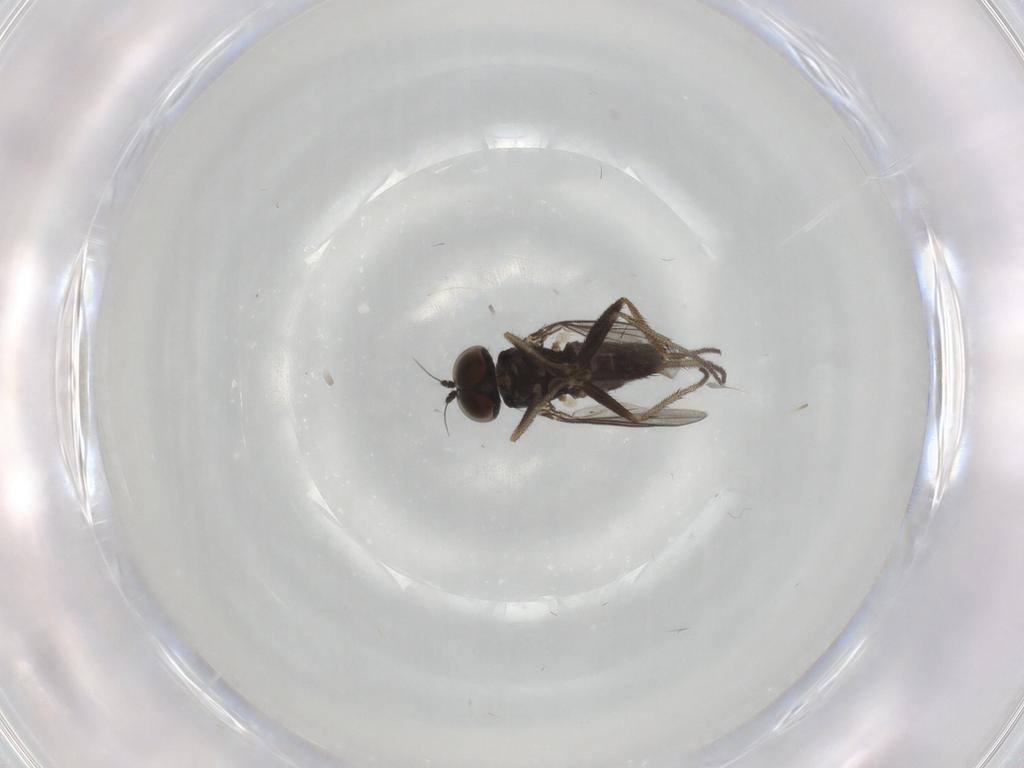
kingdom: Animalia
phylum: Arthropoda
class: Insecta
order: Diptera
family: Dolichopodidae
